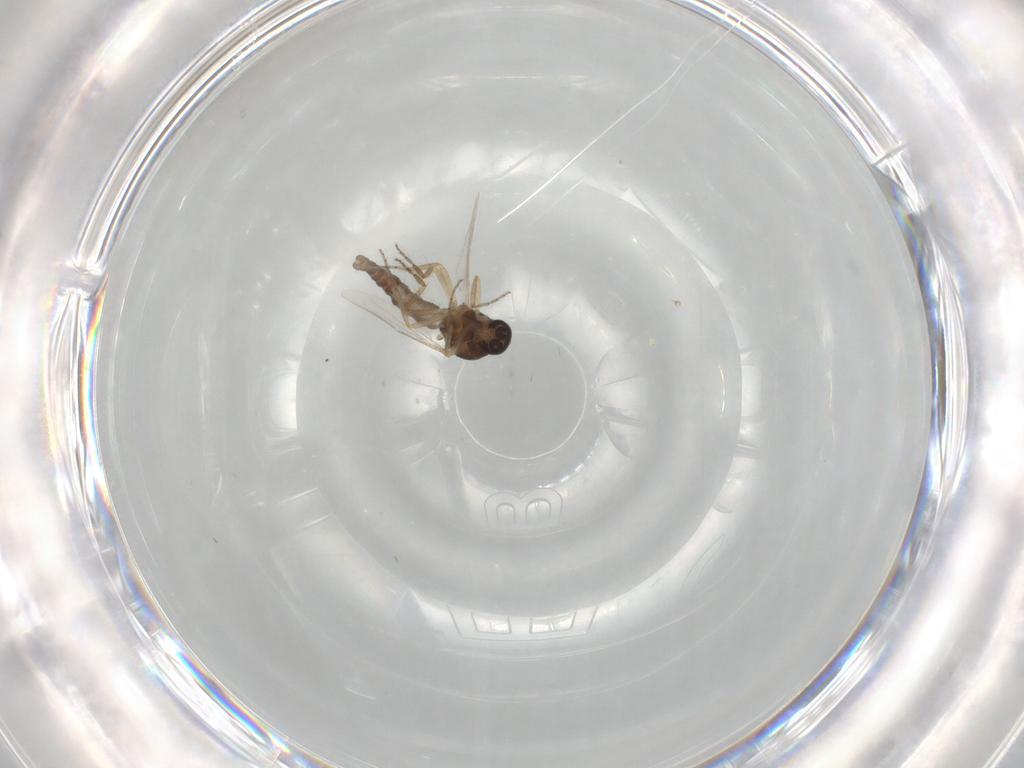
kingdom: Animalia
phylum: Arthropoda
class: Insecta
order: Diptera
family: Ceratopogonidae
